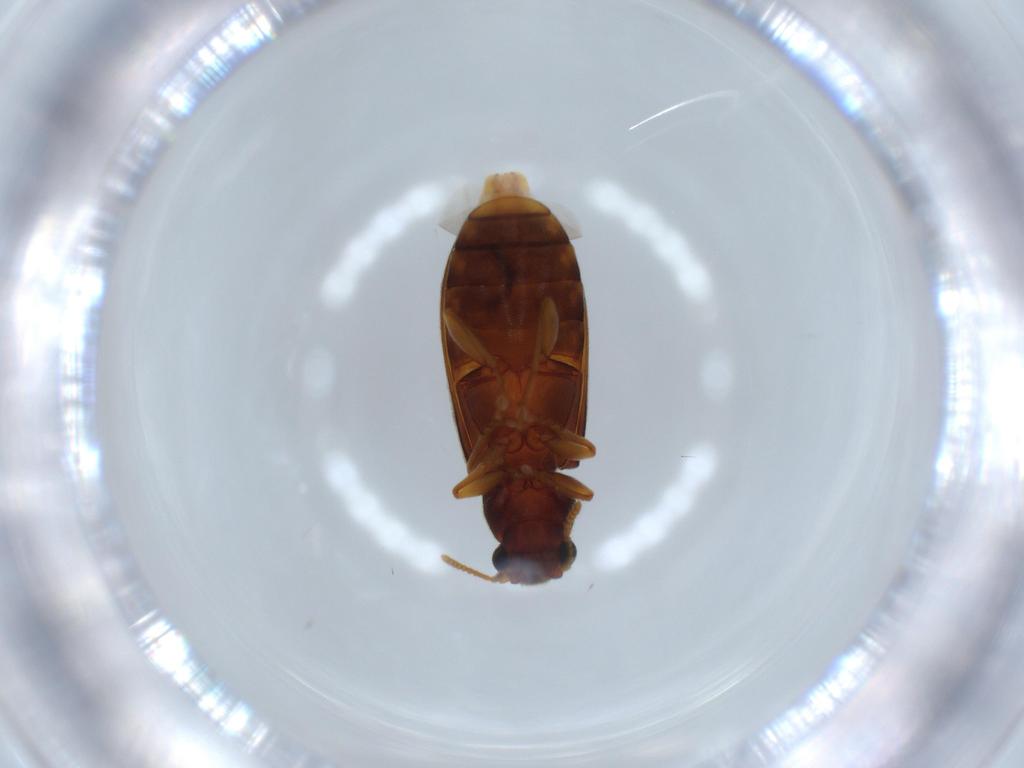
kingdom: Animalia
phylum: Arthropoda
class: Insecta
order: Coleoptera
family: Mycteridae
